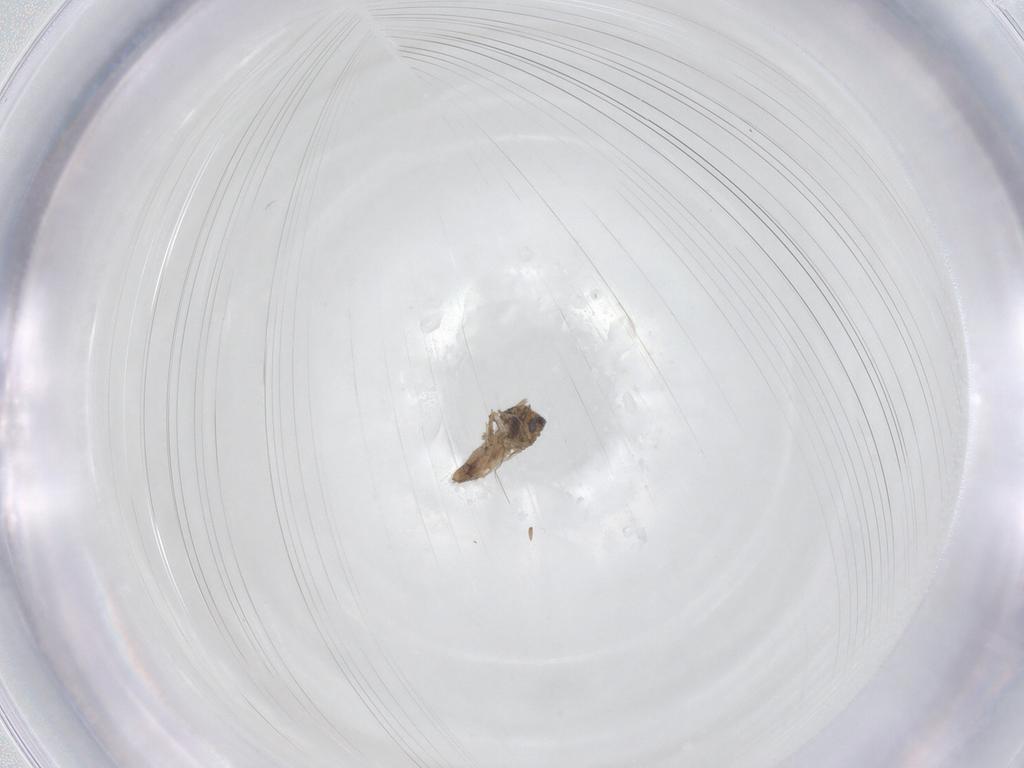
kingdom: Animalia
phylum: Arthropoda
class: Insecta
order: Diptera
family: Ceratopogonidae
